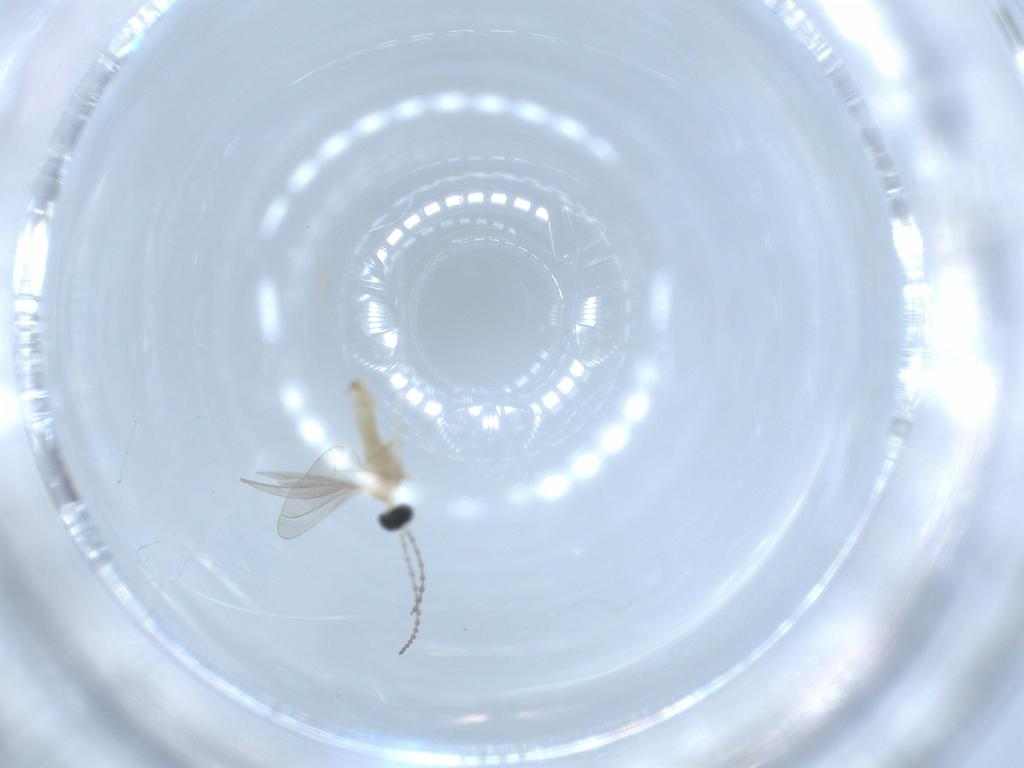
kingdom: Animalia
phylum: Arthropoda
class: Insecta
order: Diptera
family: Cecidomyiidae
